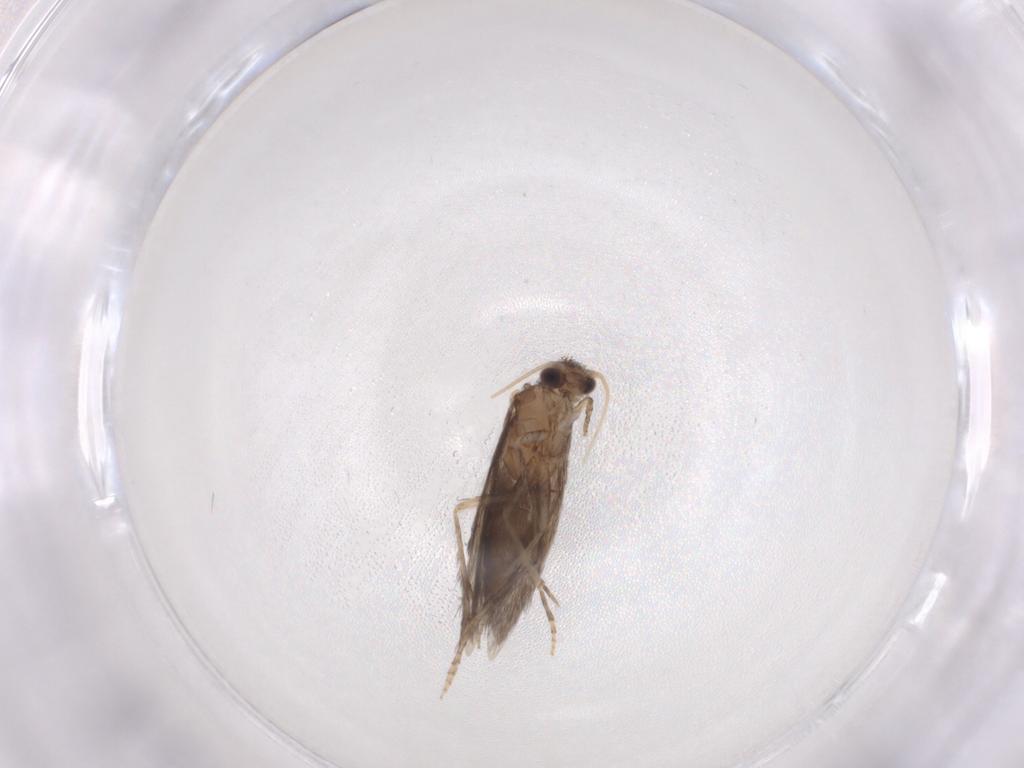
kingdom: Animalia
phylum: Arthropoda
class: Insecta
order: Trichoptera
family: Hydroptilidae
